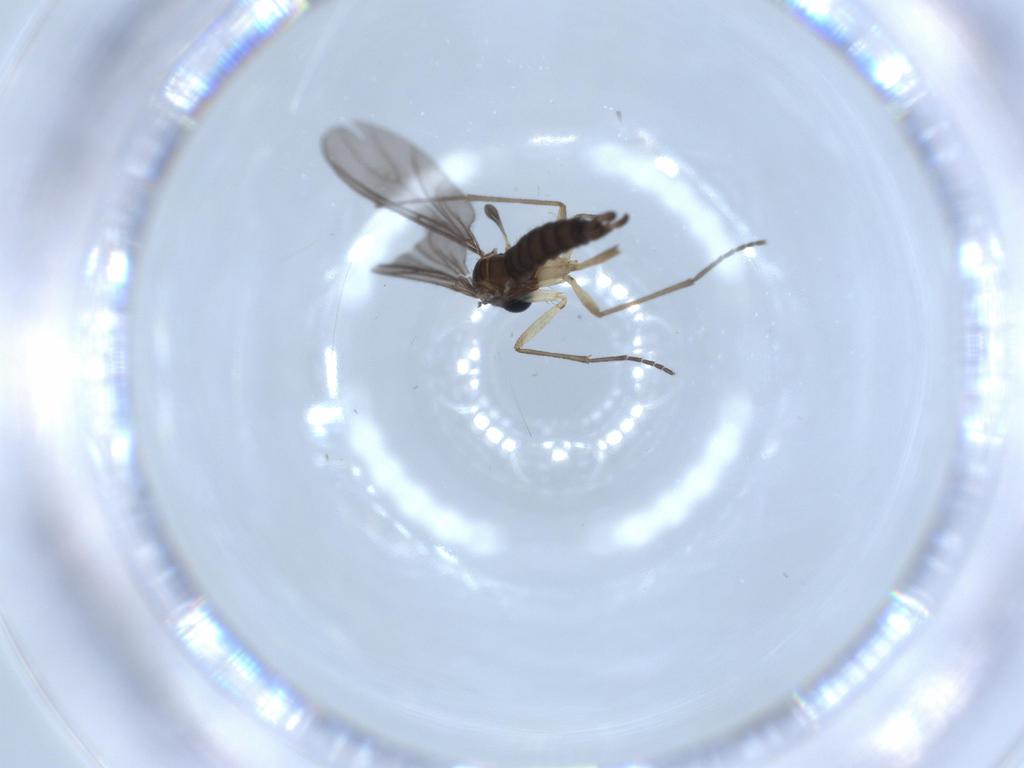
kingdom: Animalia
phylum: Arthropoda
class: Insecta
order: Diptera
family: Sciaridae
